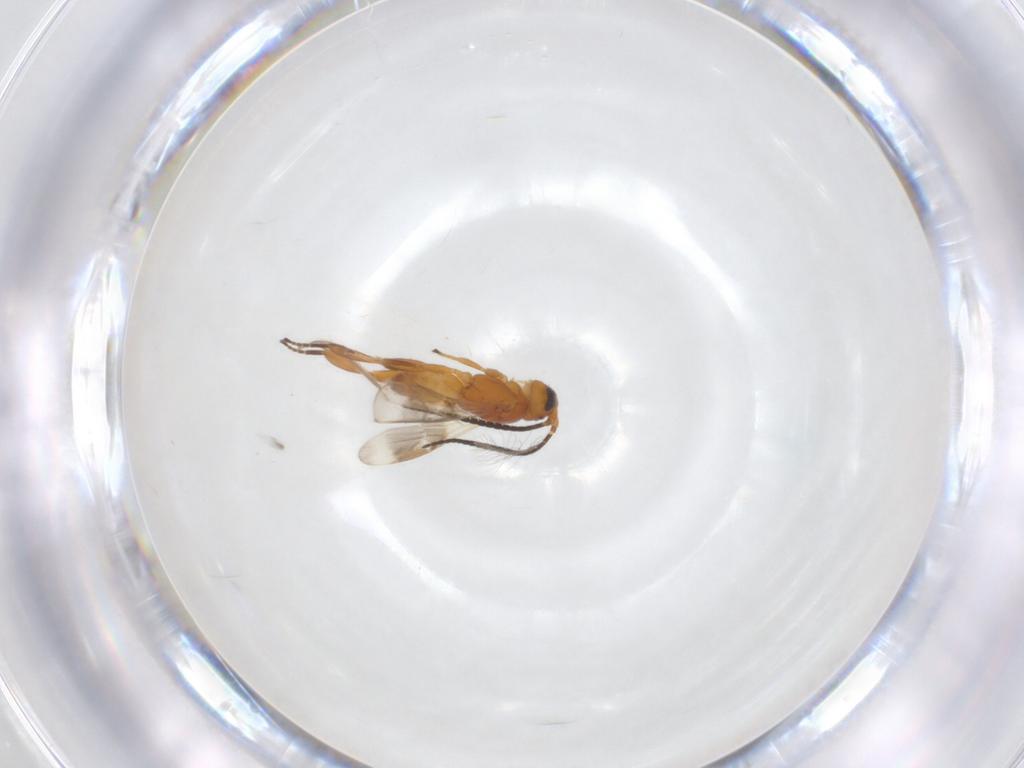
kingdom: Animalia
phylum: Arthropoda
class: Insecta
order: Hymenoptera
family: Braconidae
